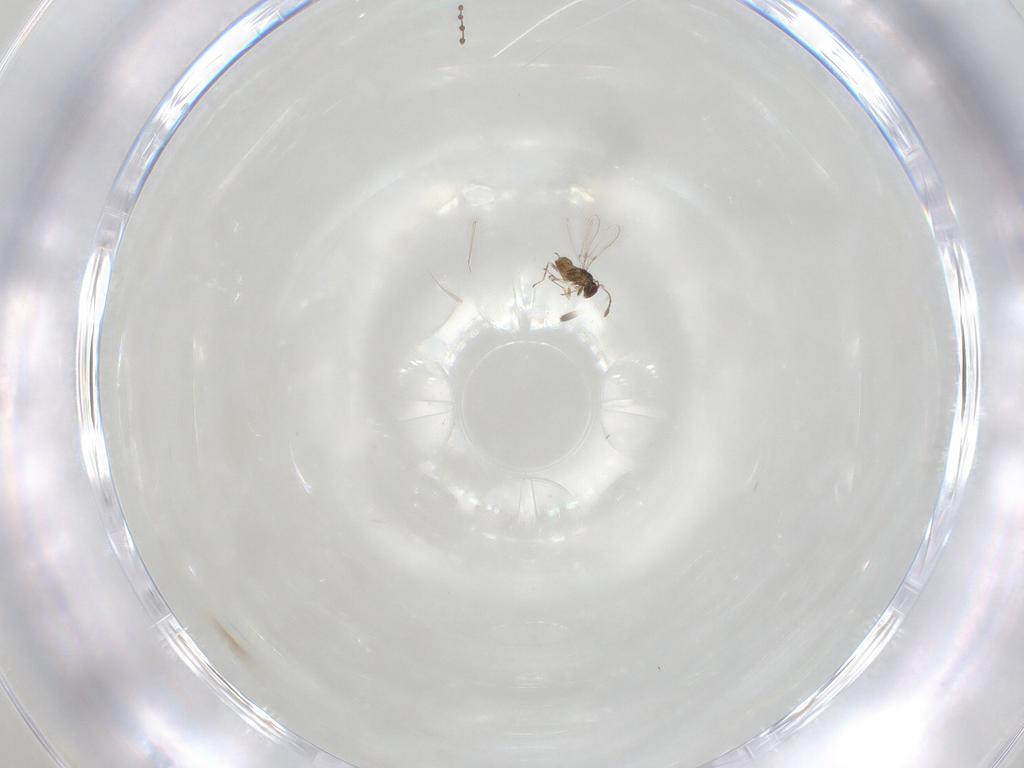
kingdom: Animalia
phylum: Arthropoda
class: Insecta
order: Hymenoptera
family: Mymaridae
